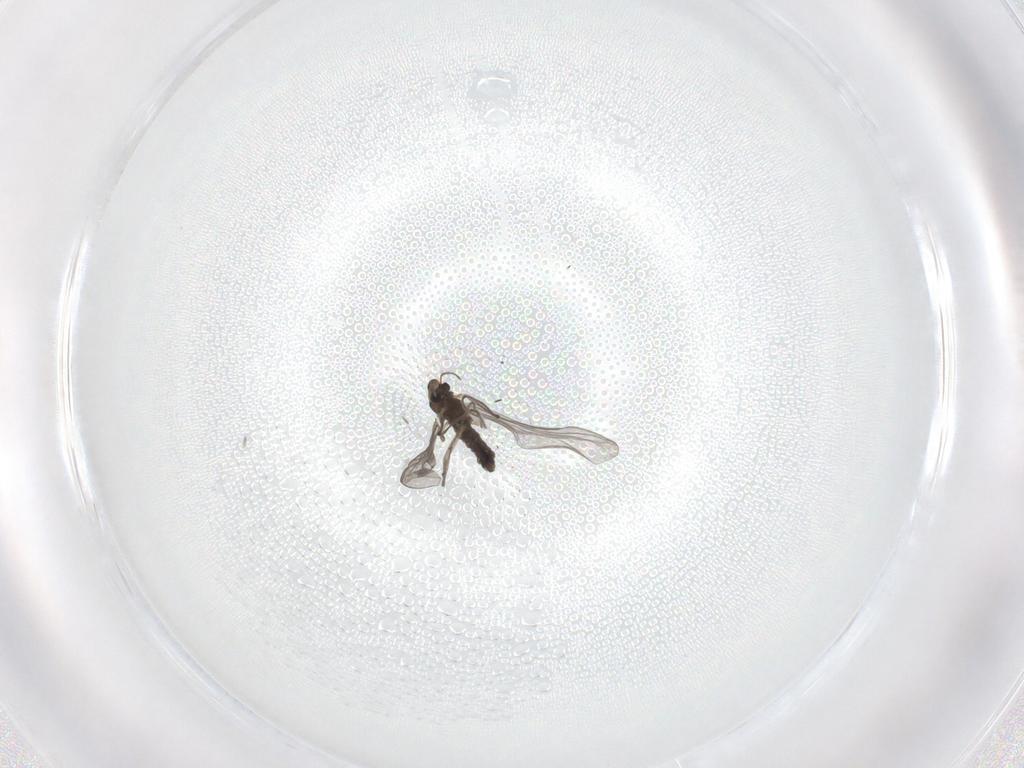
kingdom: Animalia
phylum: Arthropoda
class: Insecta
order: Diptera
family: Chironomidae
